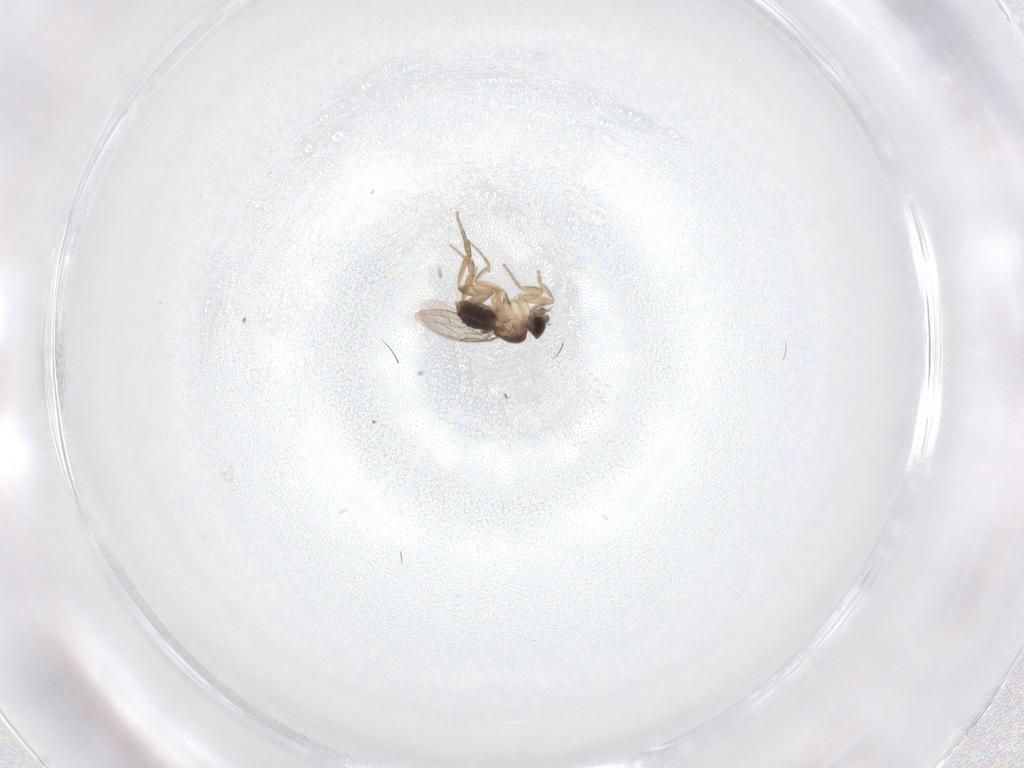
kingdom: Animalia
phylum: Arthropoda
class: Insecta
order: Diptera
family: Phoridae
